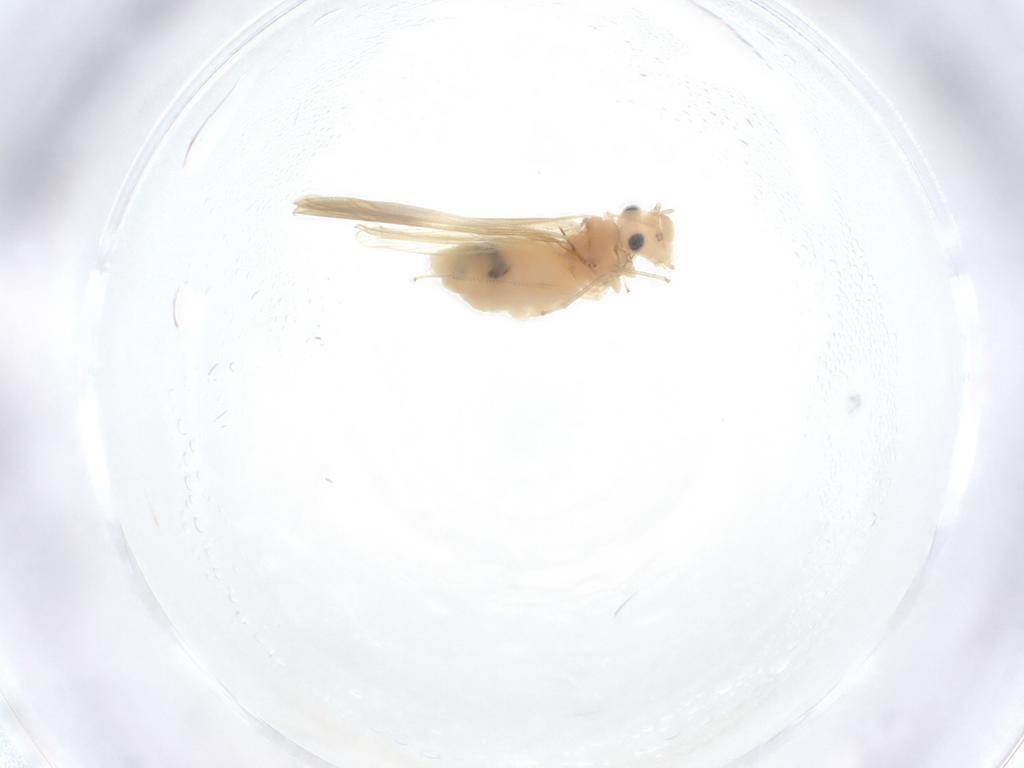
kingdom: Animalia
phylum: Arthropoda
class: Insecta
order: Psocodea
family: Caeciliusidae
